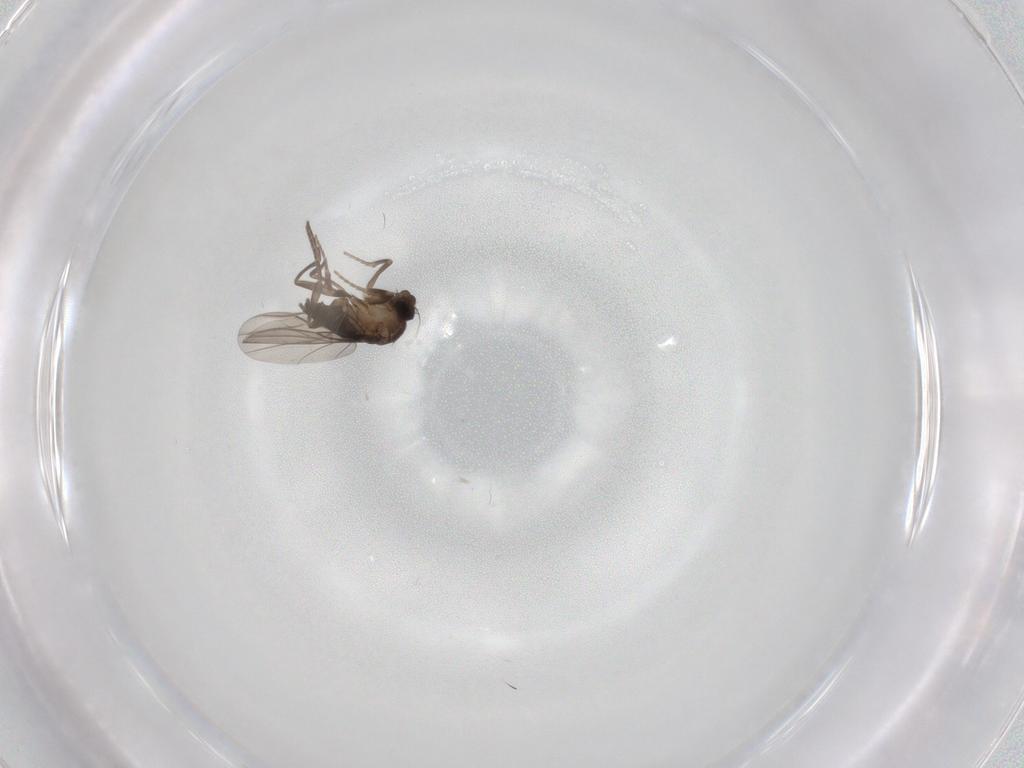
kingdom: Animalia
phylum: Arthropoda
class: Insecta
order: Diptera
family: Phoridae
